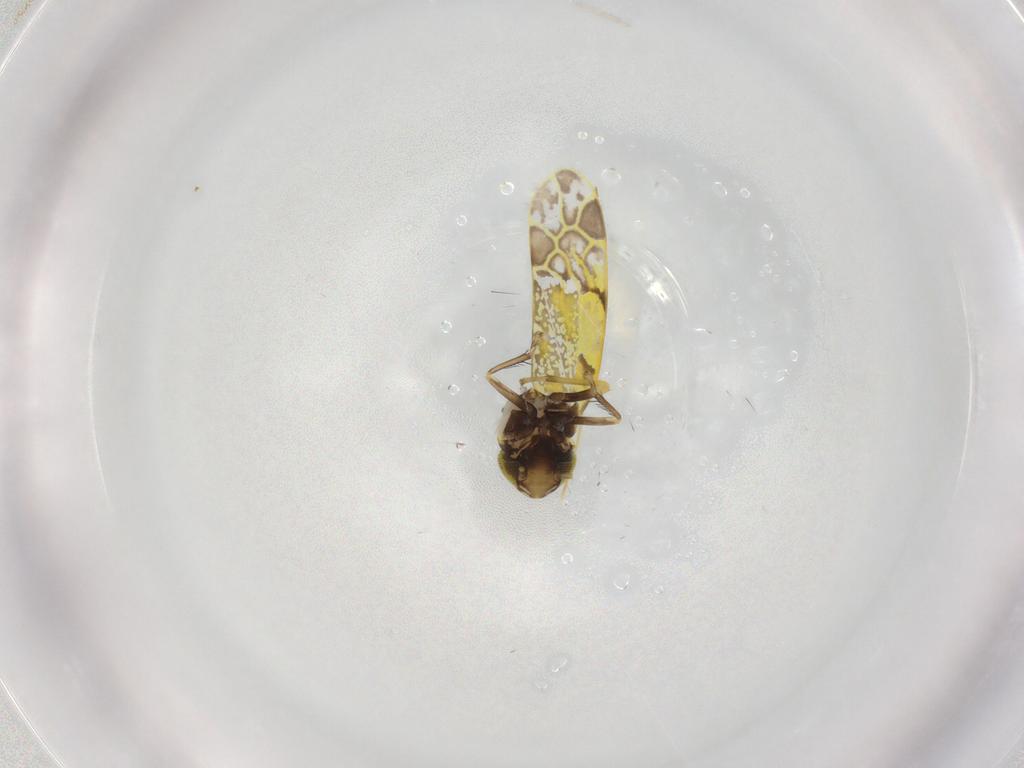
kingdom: Animalia
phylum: Arthropoda
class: Insecta
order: Hemiptera
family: Cicadellidae
